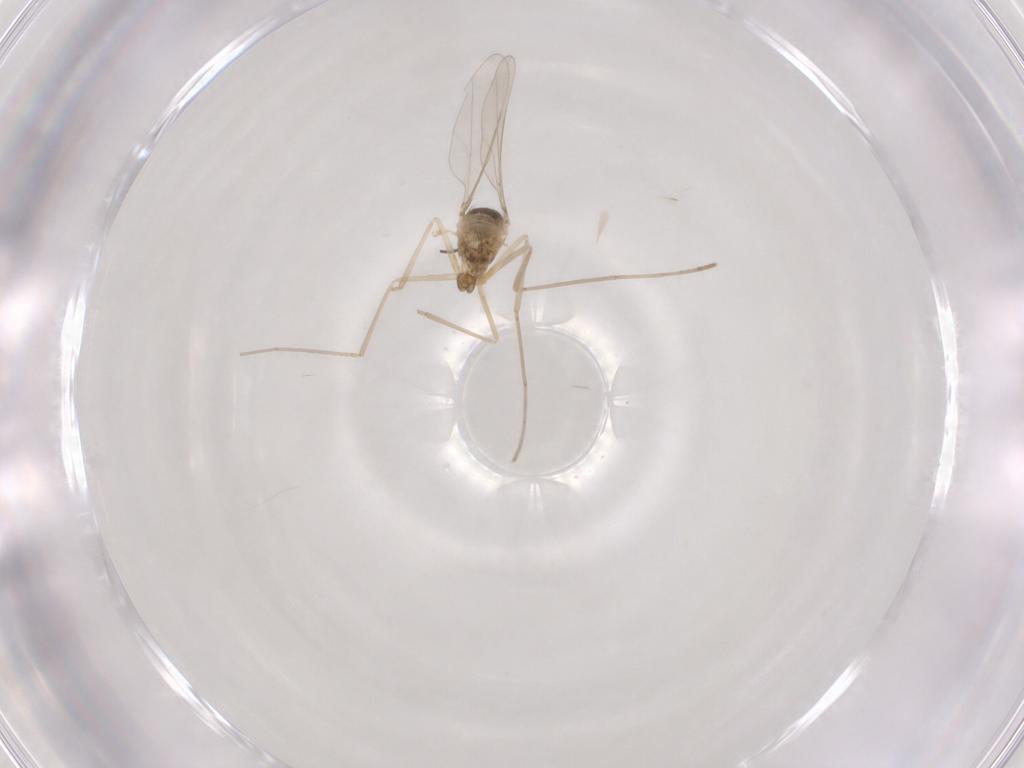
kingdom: Animalia
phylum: Arthropoda
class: Insecta
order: Diptera
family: Cecidomyiidae
